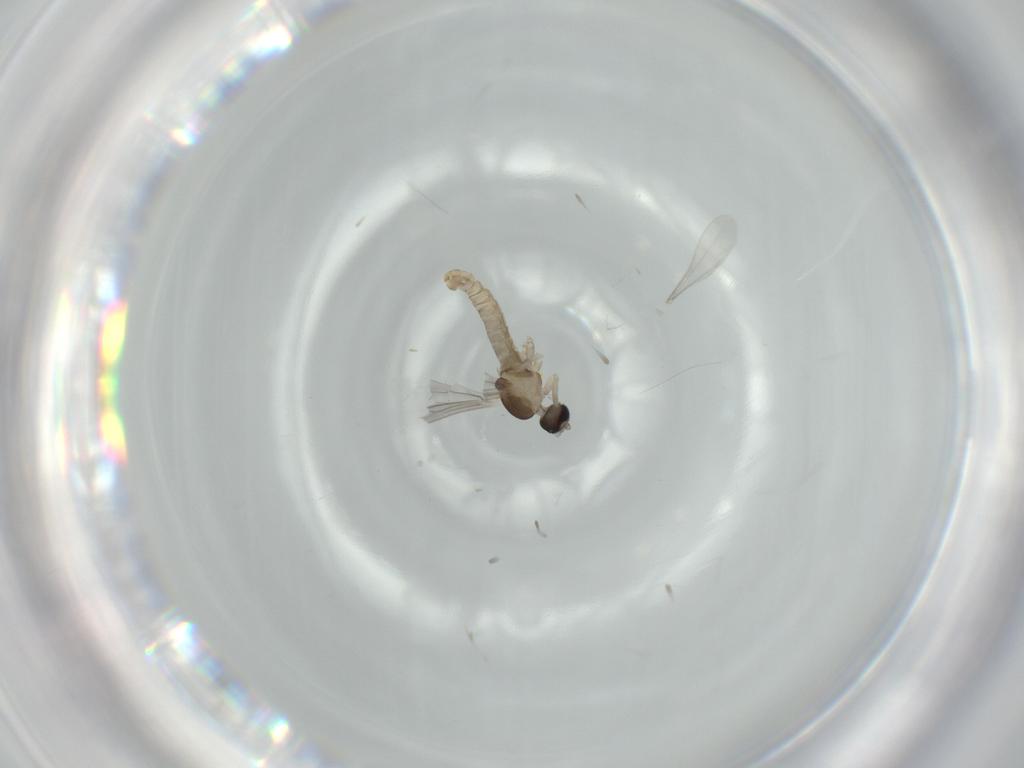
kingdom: Animalia
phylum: Arthropoda
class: Insecta
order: Diptera
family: Cecidomyiidae
